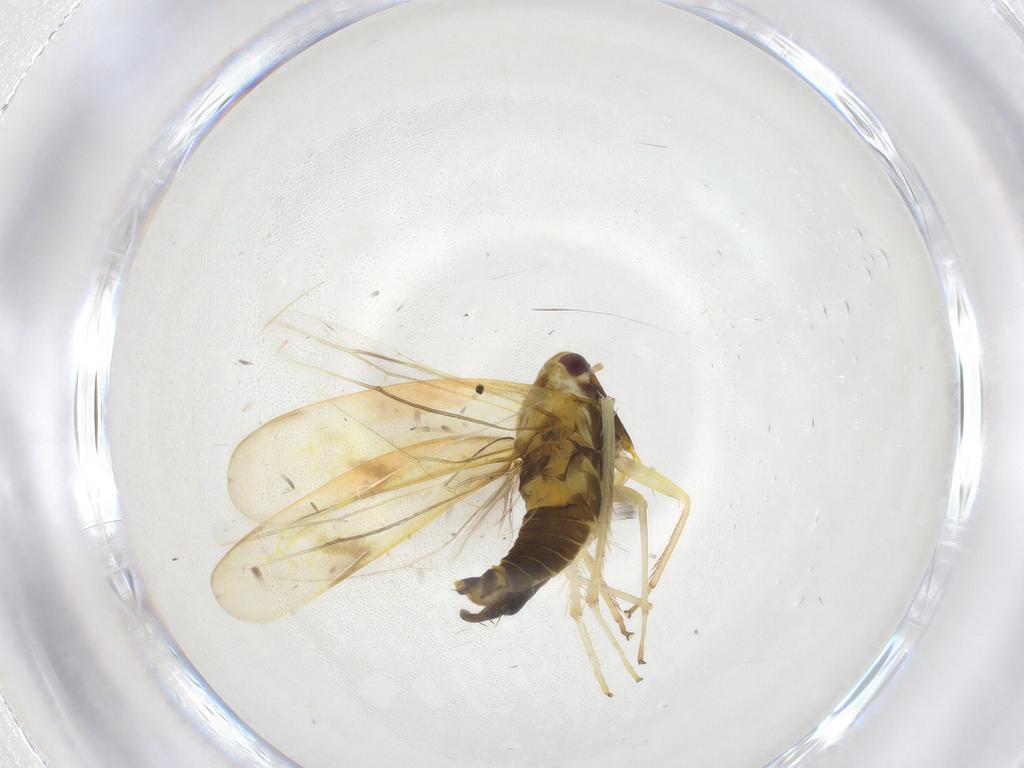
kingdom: Animalia
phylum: Arthropoda
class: Insecta
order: Hemiptera
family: Cicadellidae
